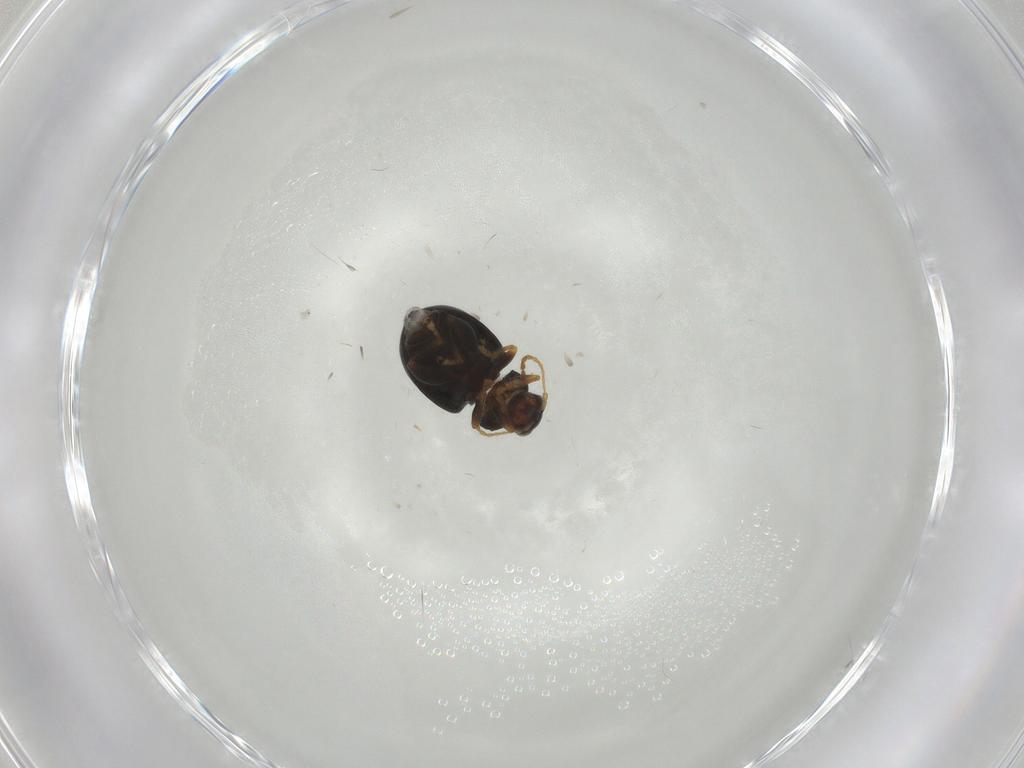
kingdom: Animalia
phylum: Arthropoda
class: Insecta
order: Coleoptera
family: Chrysomelidae
